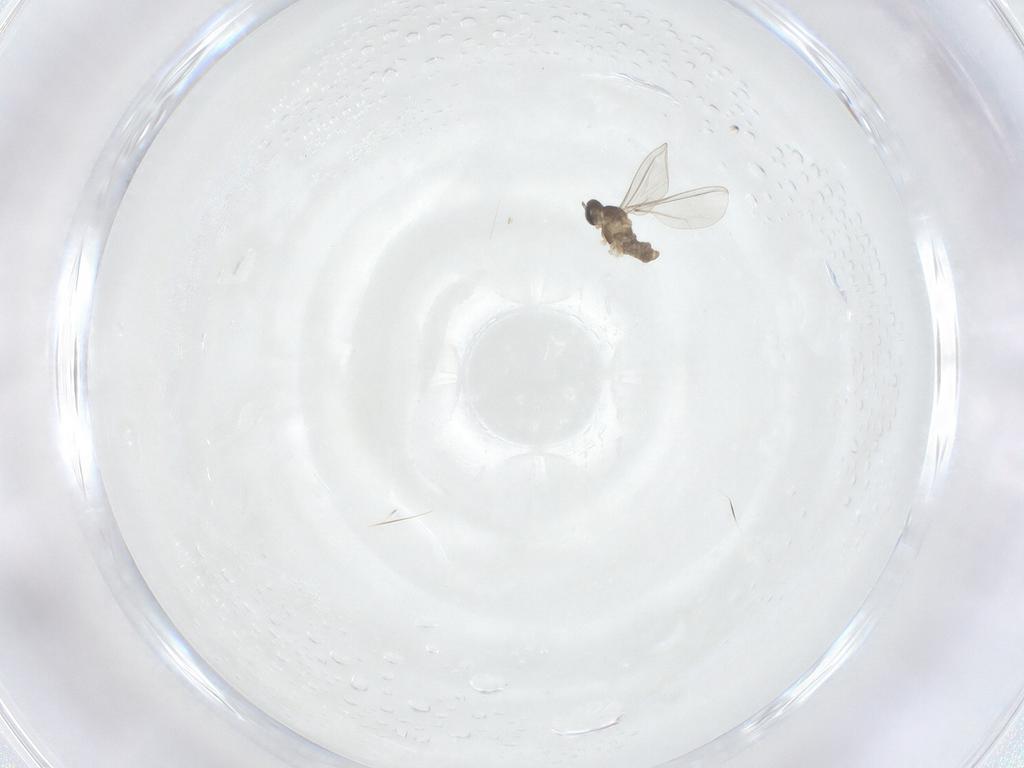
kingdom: Animalia
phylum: Arthropoda
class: Insecta
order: Diptera
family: Cecidomyiidae
